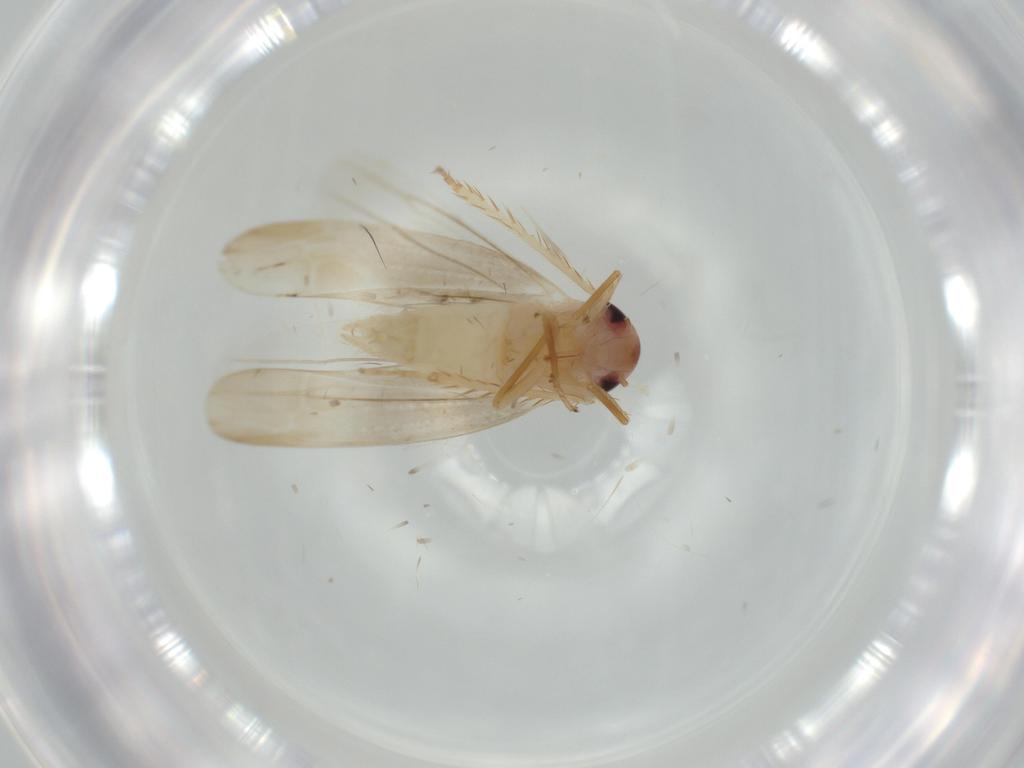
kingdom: Animalia
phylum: Arthropoda
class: Insecta
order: Hemiptera
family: Cicadellidae
